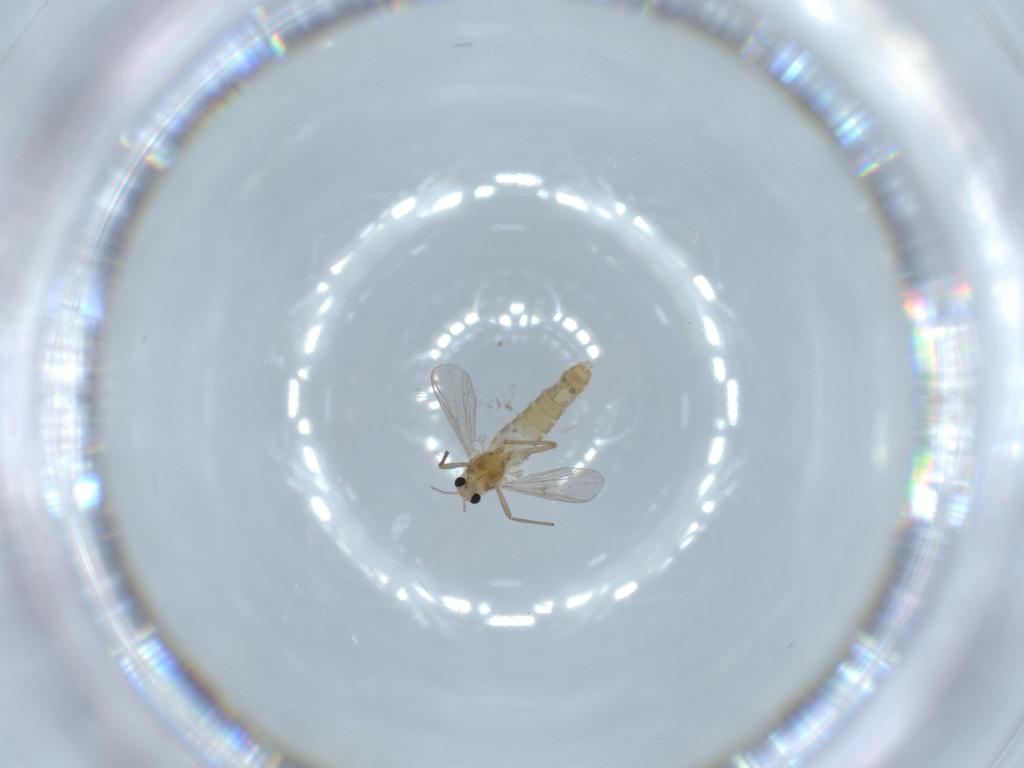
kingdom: Animalia
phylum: Arthropoda
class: Insecta
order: Diptera
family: Chironomidae
